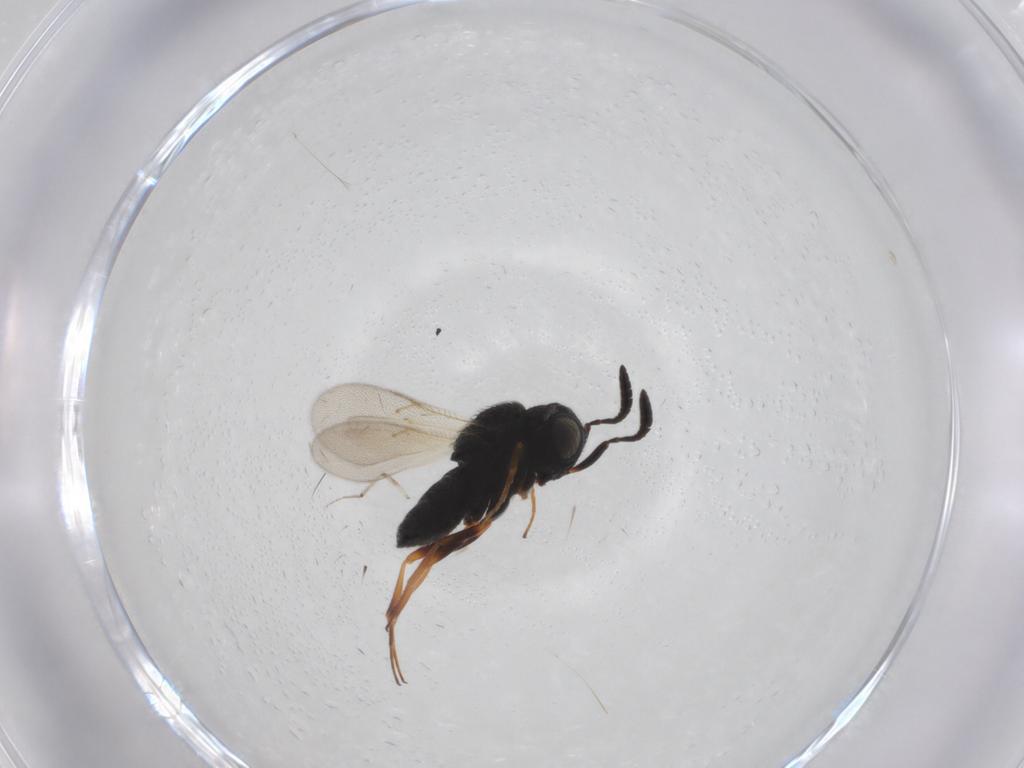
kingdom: Animalia
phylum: Arthropoda
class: Insecta
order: Hymenoptera
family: Scelionidae
